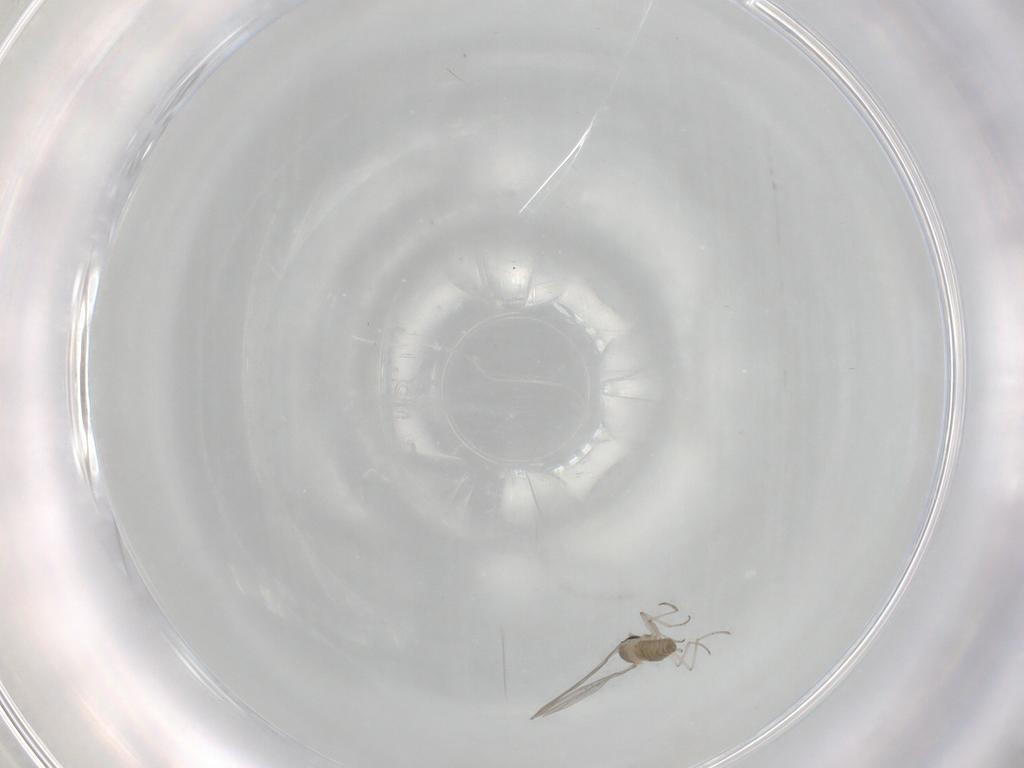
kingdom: Animalia
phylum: Arthropoda
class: Insecta
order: Diptera
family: Cecidomyiidae
